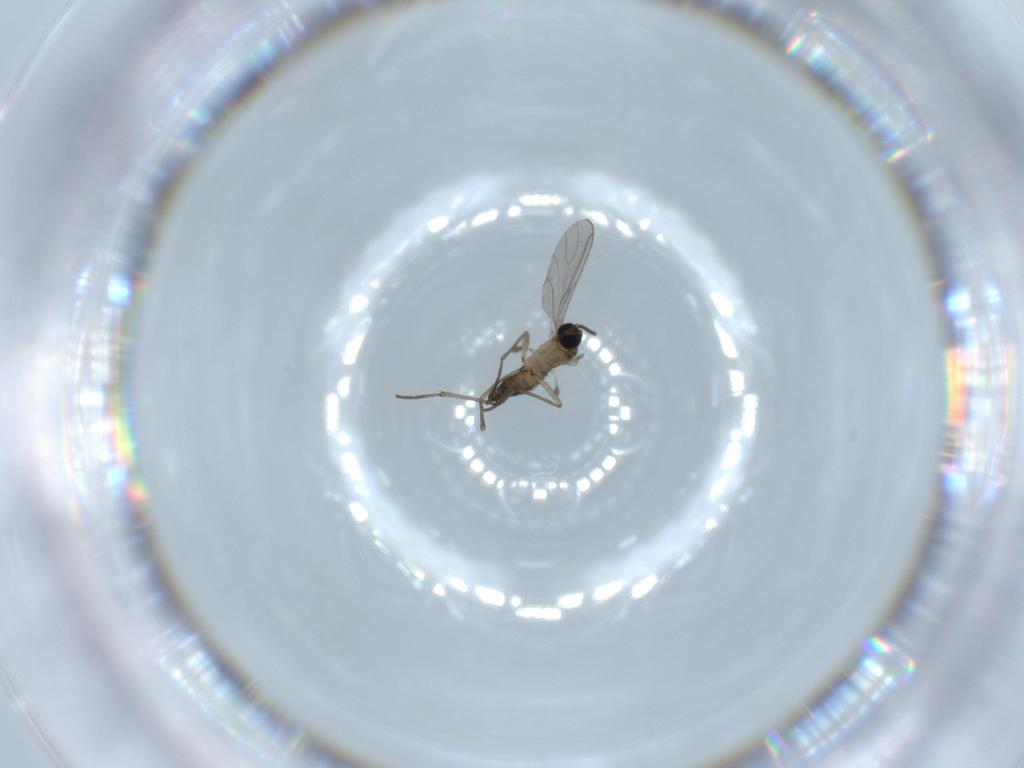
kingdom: Animalia
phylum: Arthropoda
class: Insecta
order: Diptera
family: Sciaridae
